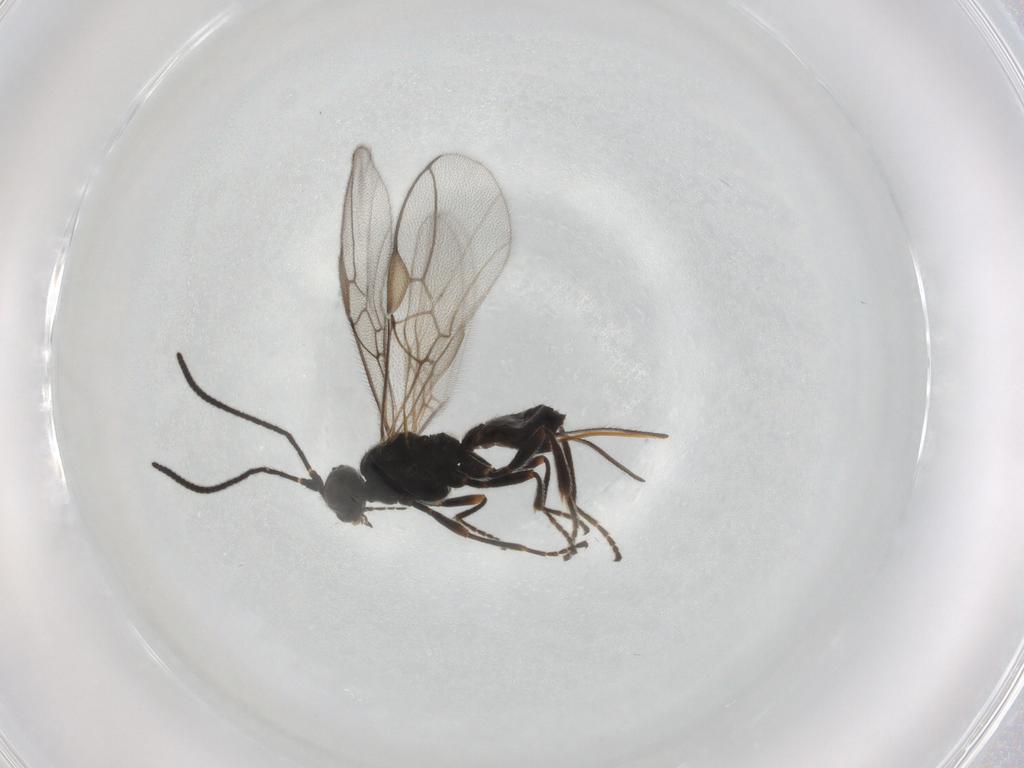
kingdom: Animalia
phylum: Arthropoda
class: Insecta
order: Hymenoptera
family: Braconidae
